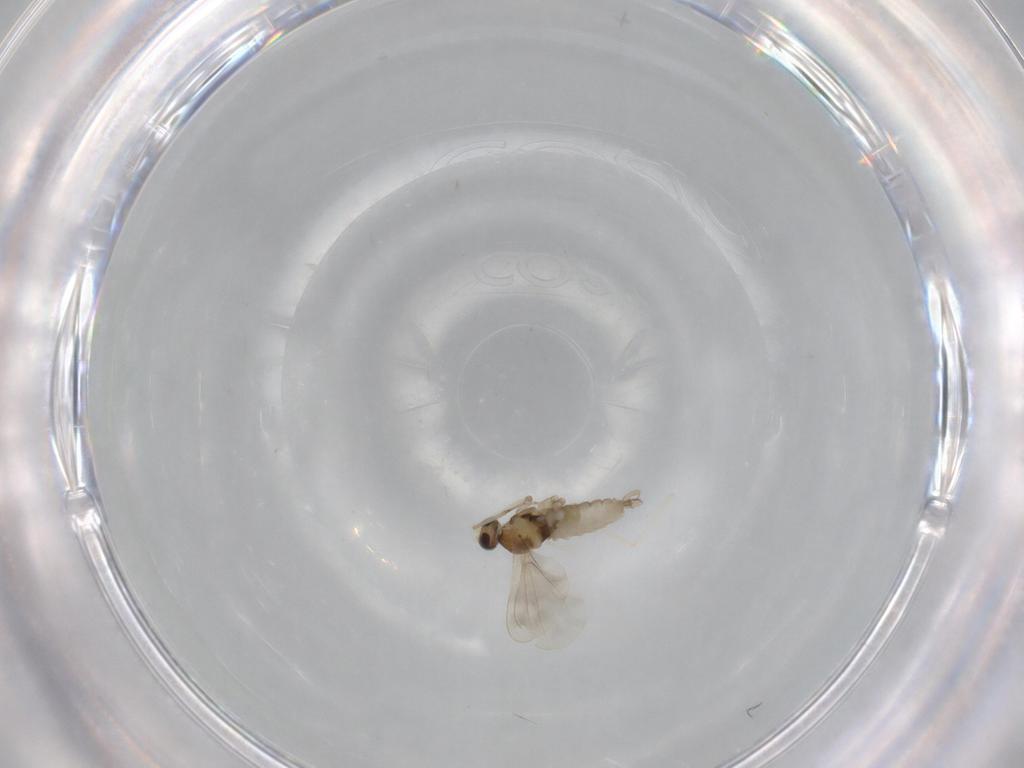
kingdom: Animalia
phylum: Arthropoda
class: Insecta
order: Diptera
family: Cecidomyiidae
